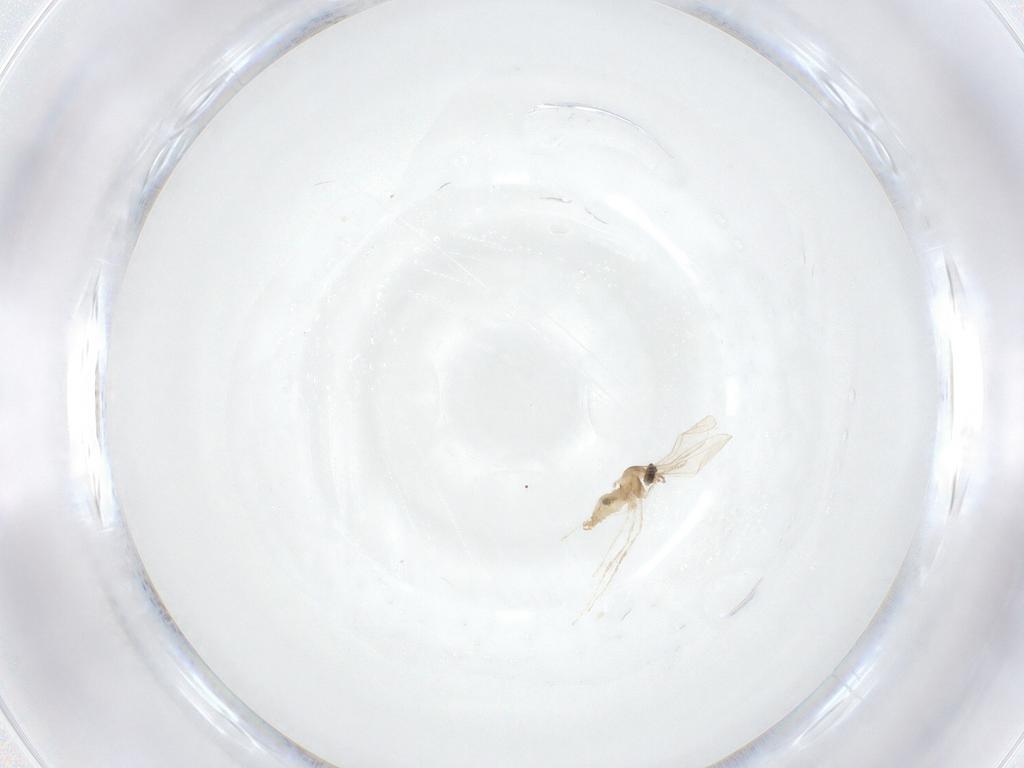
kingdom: Animalia
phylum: Arthropoda
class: Insecta
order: Diptera
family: Cecidomyiidae
